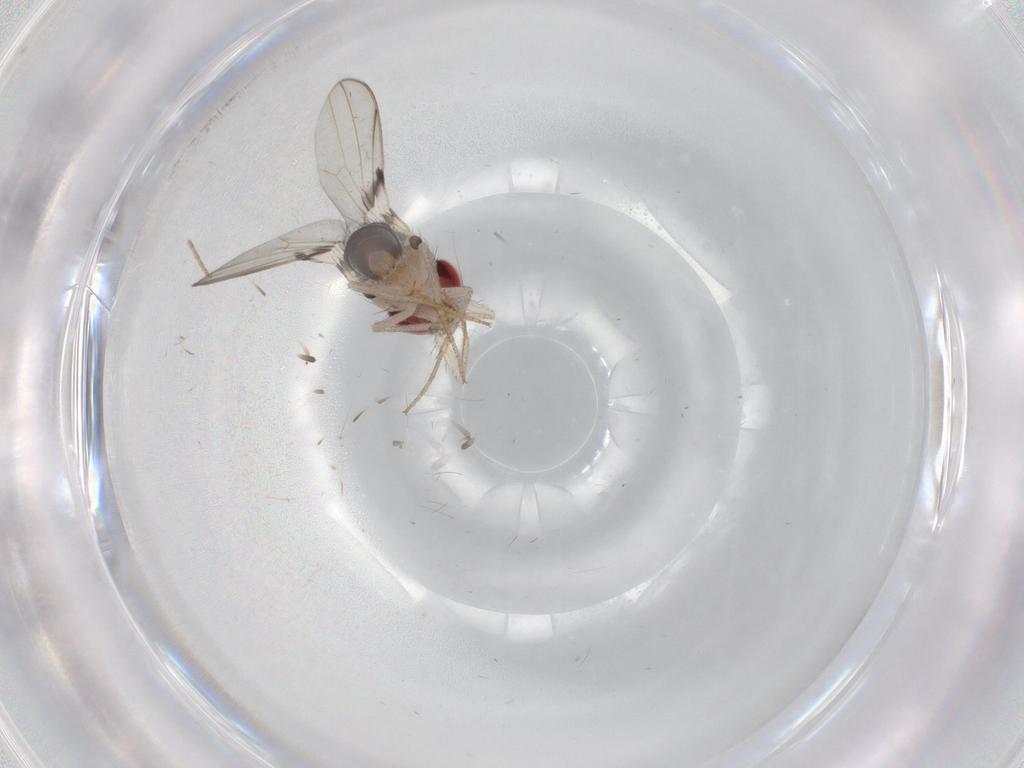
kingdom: Animalia
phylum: Arthropoda
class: Insecta
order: Diptera
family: Drosophilidae
